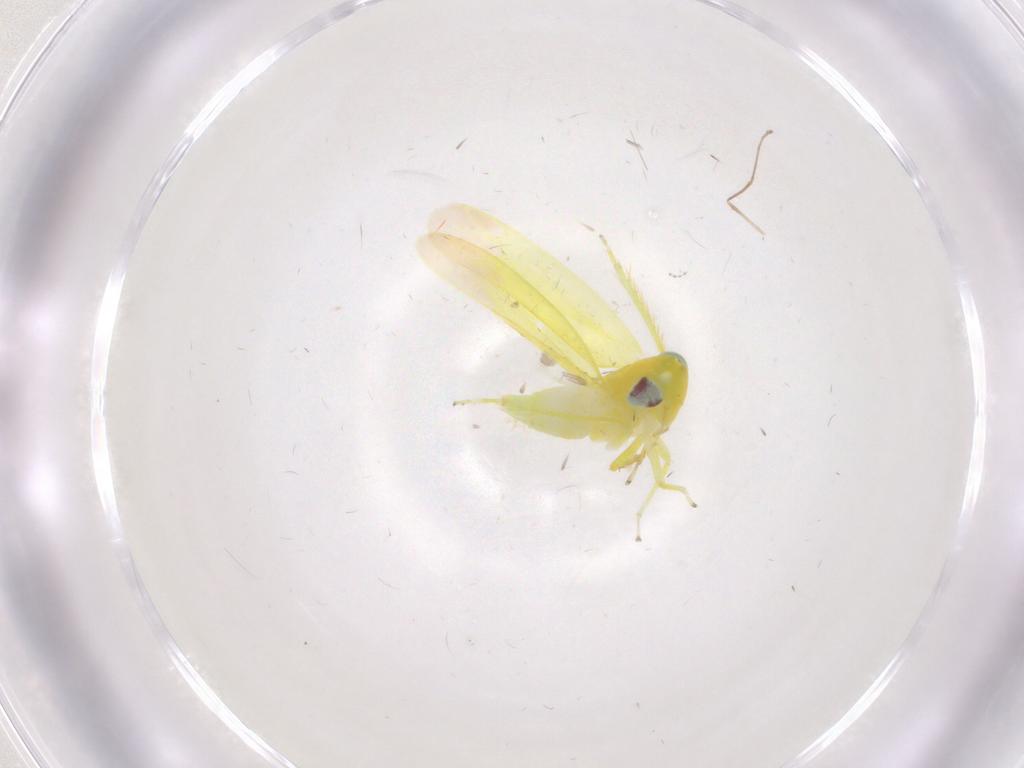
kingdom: Animalia
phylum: Arthropoda
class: Insecta
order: Hemiptera
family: Cicadellidae
